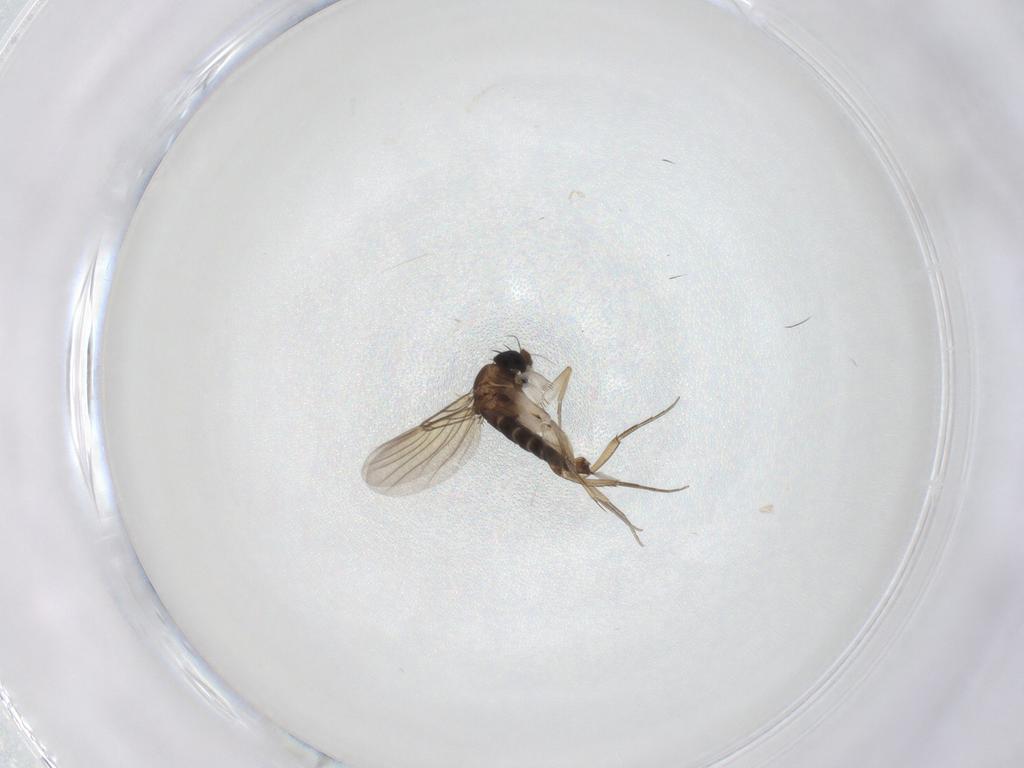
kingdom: Animalia
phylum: Arthropoda
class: Insecta
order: Diptera
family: Phoridae
